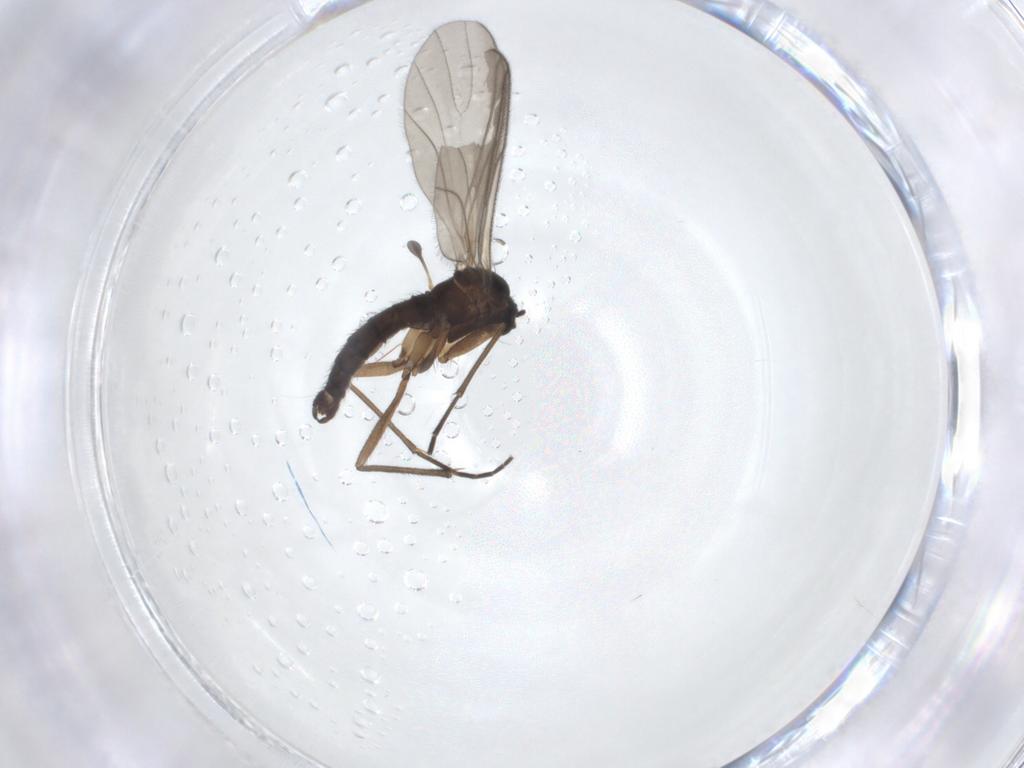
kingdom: Animalia
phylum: Arthropoda
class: Insecta
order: Diptera
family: Sciaridae
